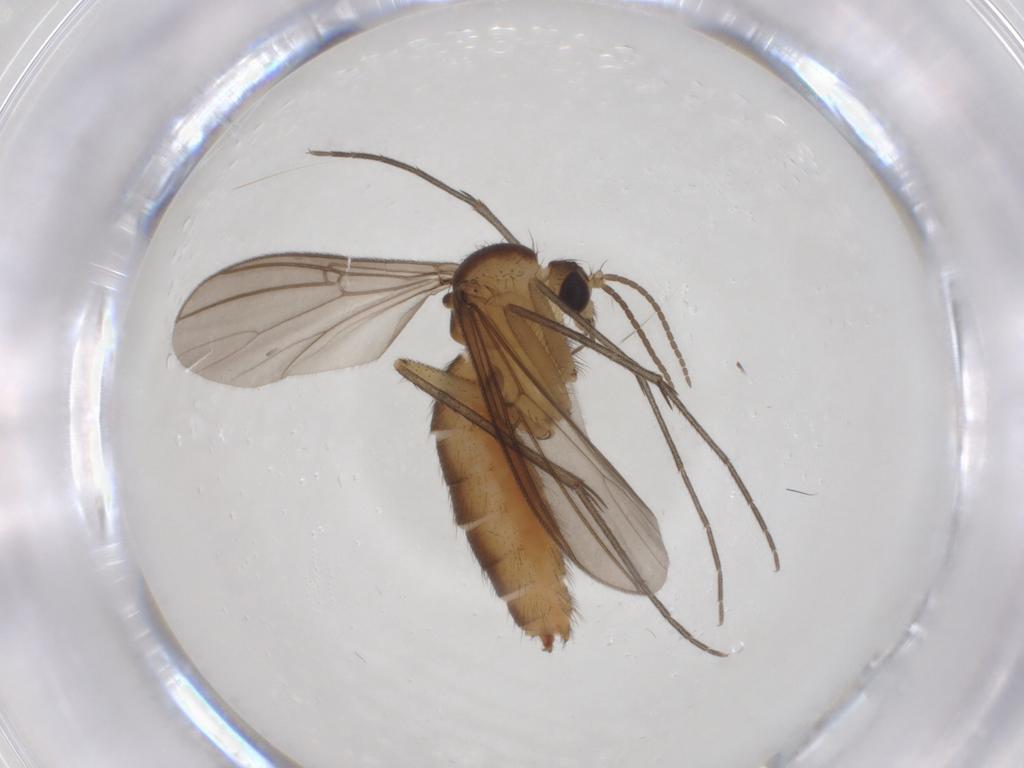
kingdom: Animalia
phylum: Arthropoda
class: Insecta
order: Diptera
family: Mycetophilidae
